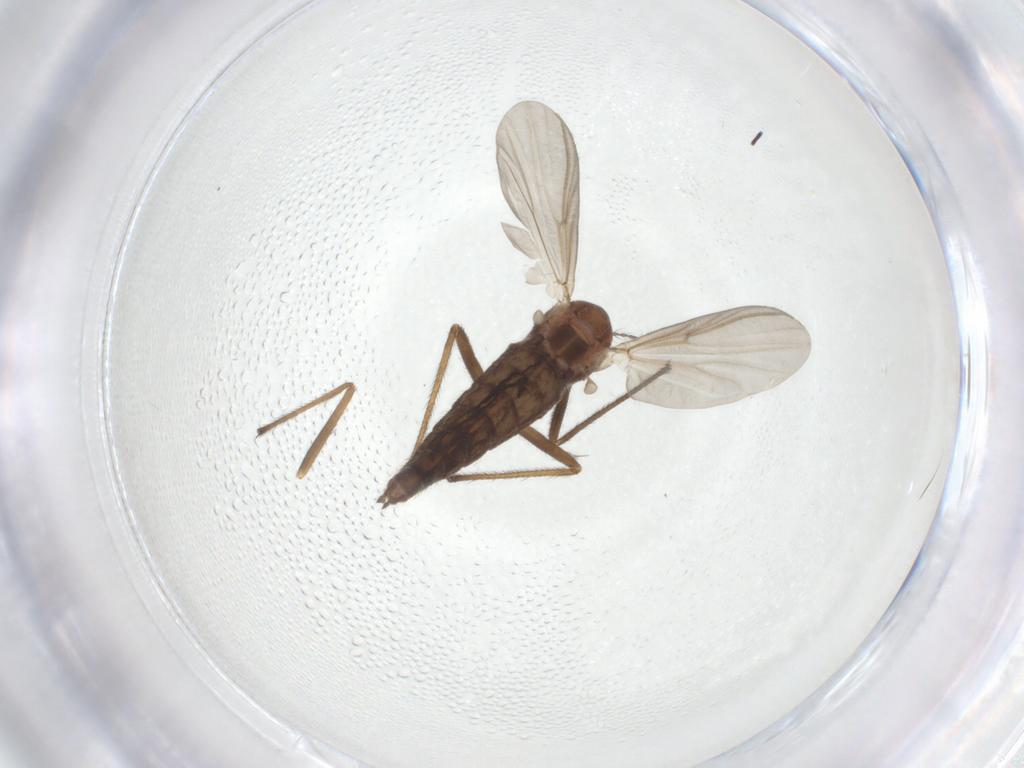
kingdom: Animalia
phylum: Arthropoda
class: Insecta
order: Diptera
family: Chironomidae
